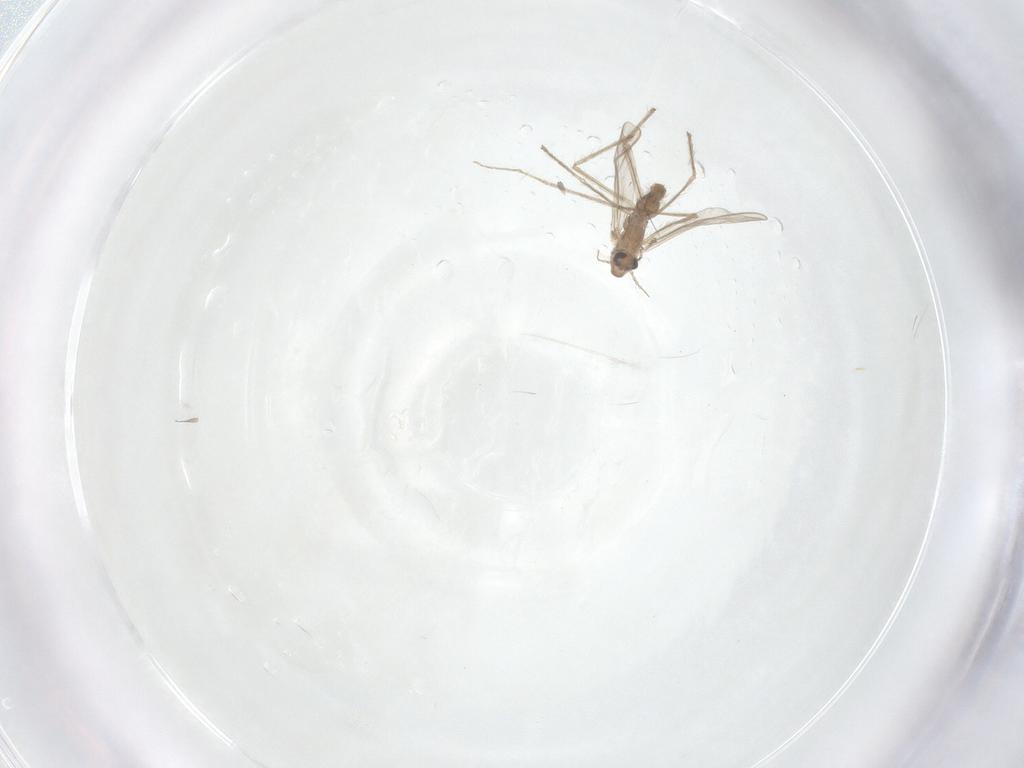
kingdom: Animalia
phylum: Arthropoda
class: Insecta
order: Diptera
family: Chironomidae
